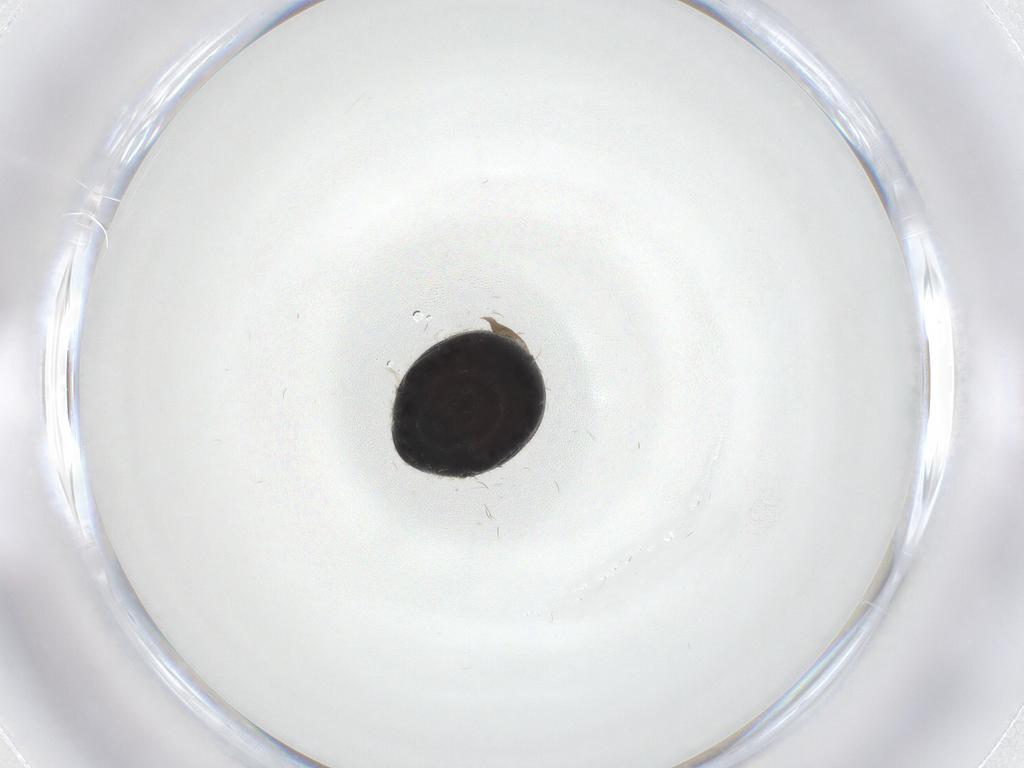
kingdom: Animalia
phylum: Arthropoda
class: Insecta
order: Coleoptera
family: Ptinidae
